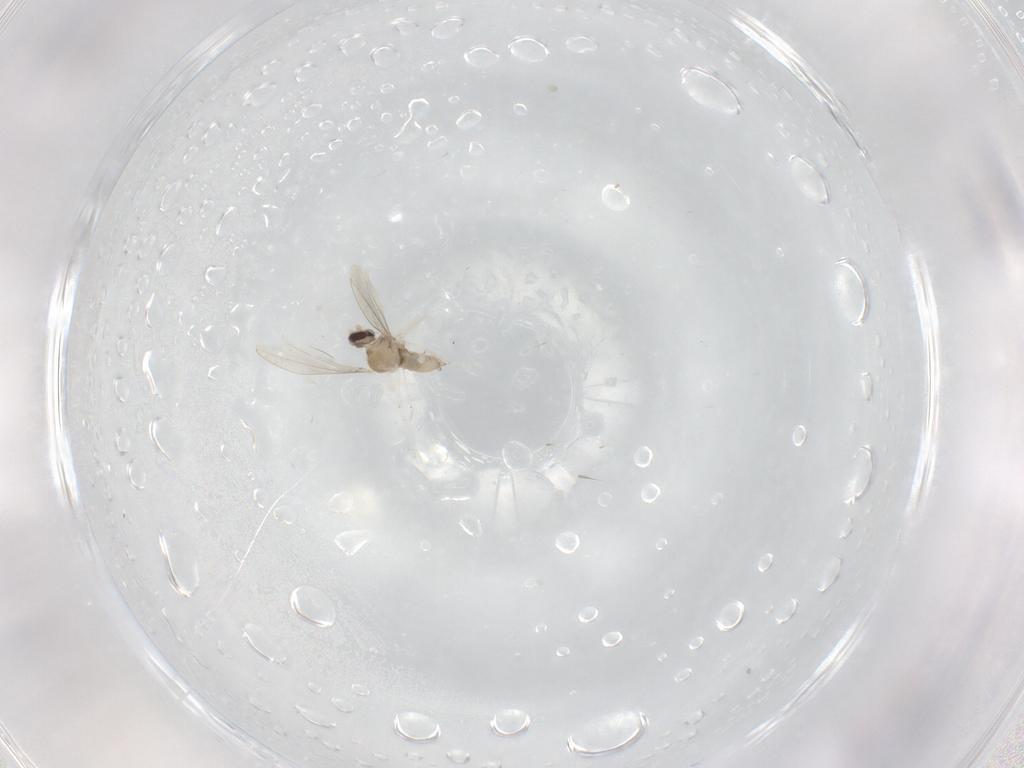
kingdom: Animalia
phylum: Arthropoda
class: Insecta
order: Diptera
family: Cecidomyiidae
